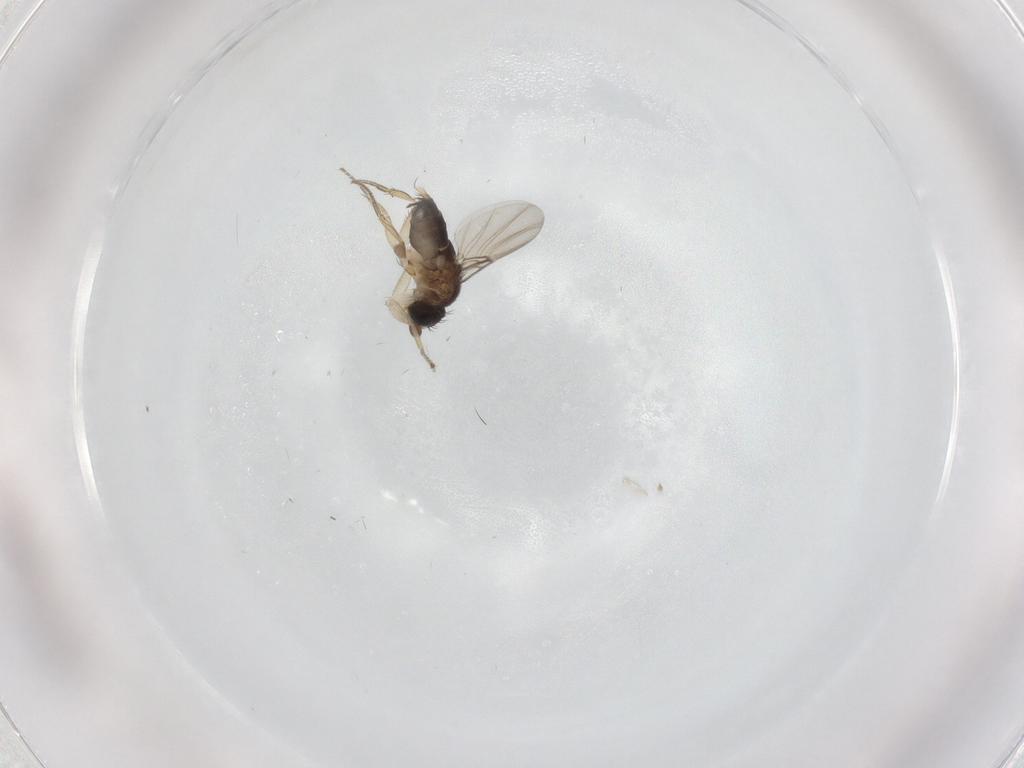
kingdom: Animalia
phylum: Arthropoda
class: Insecta
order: Diptera
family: Phoridae
